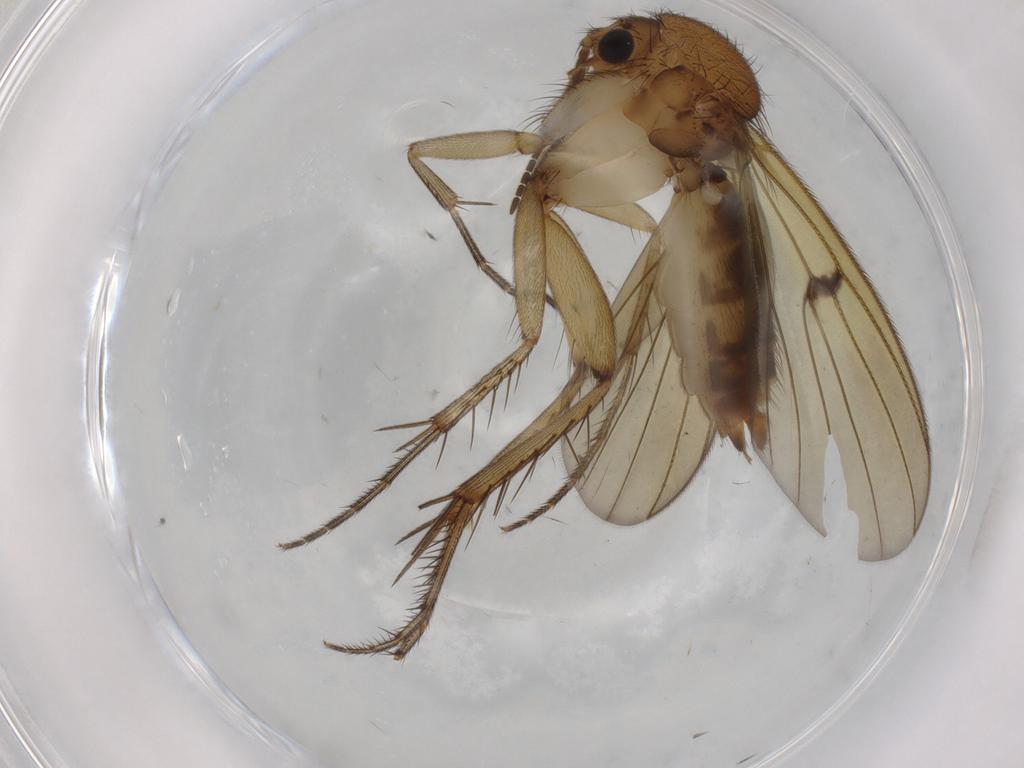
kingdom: Animalia
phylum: Arthropoda
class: Insecta
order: Diptera
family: Mycetophilidae
